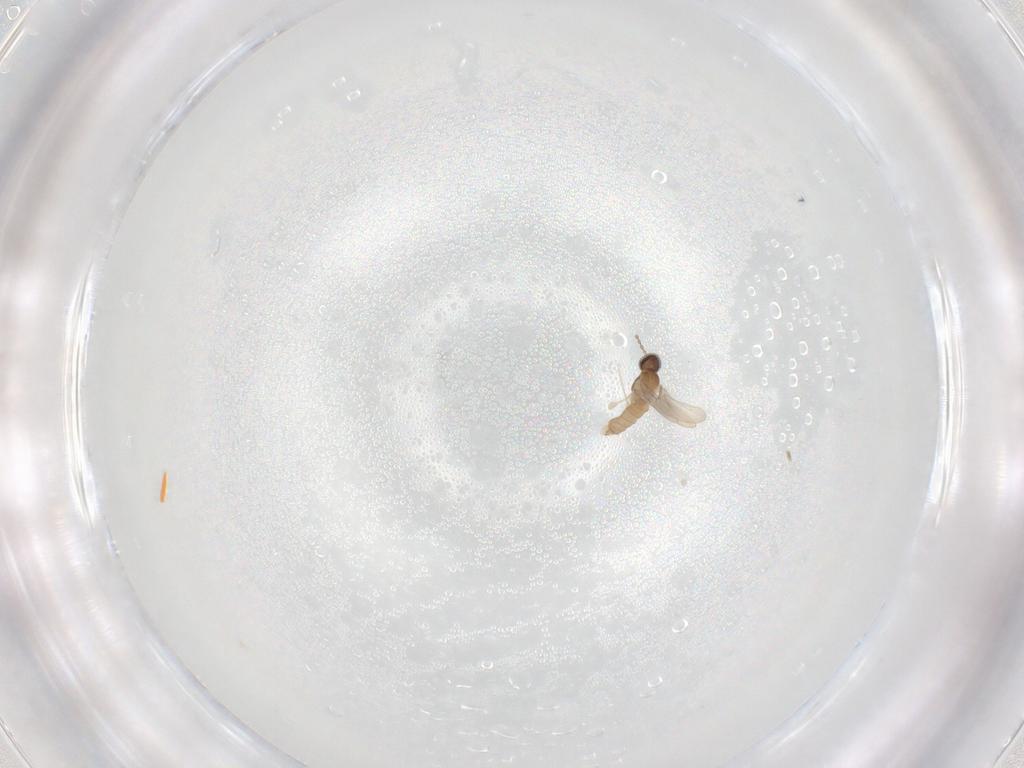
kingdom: Animalia
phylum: Arthropoda
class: Insecta
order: Diptera
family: Cecidomyiidae
